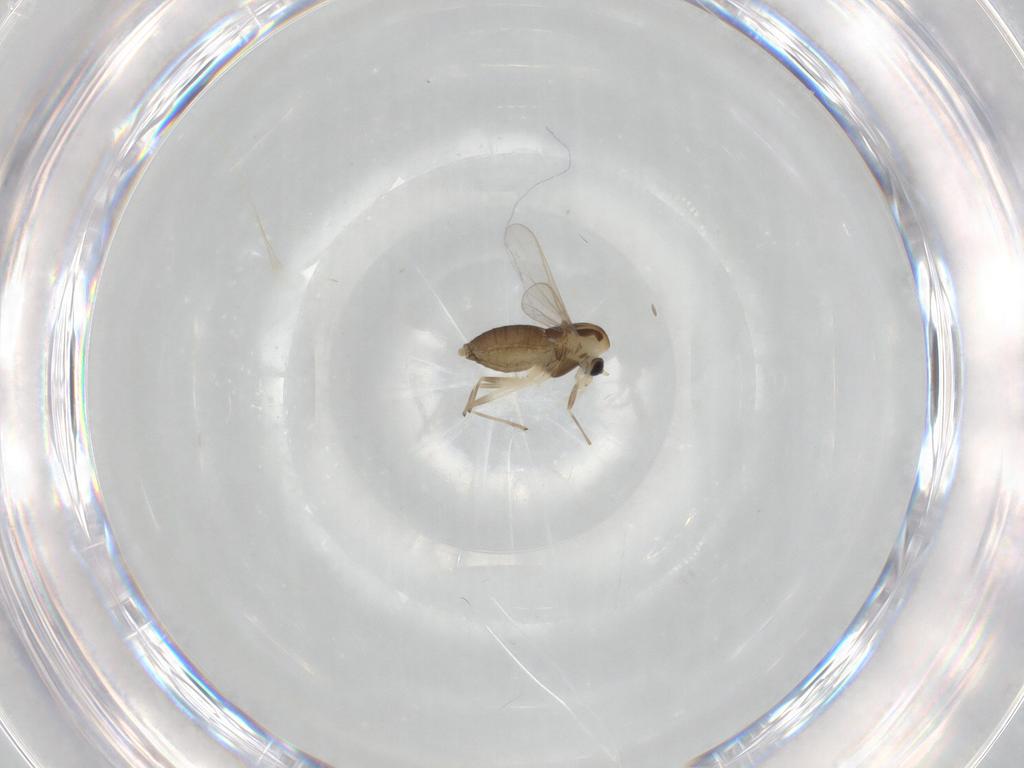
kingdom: Animalia
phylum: Arthropoda
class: Insecta
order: Diptera
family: Chironomidae
